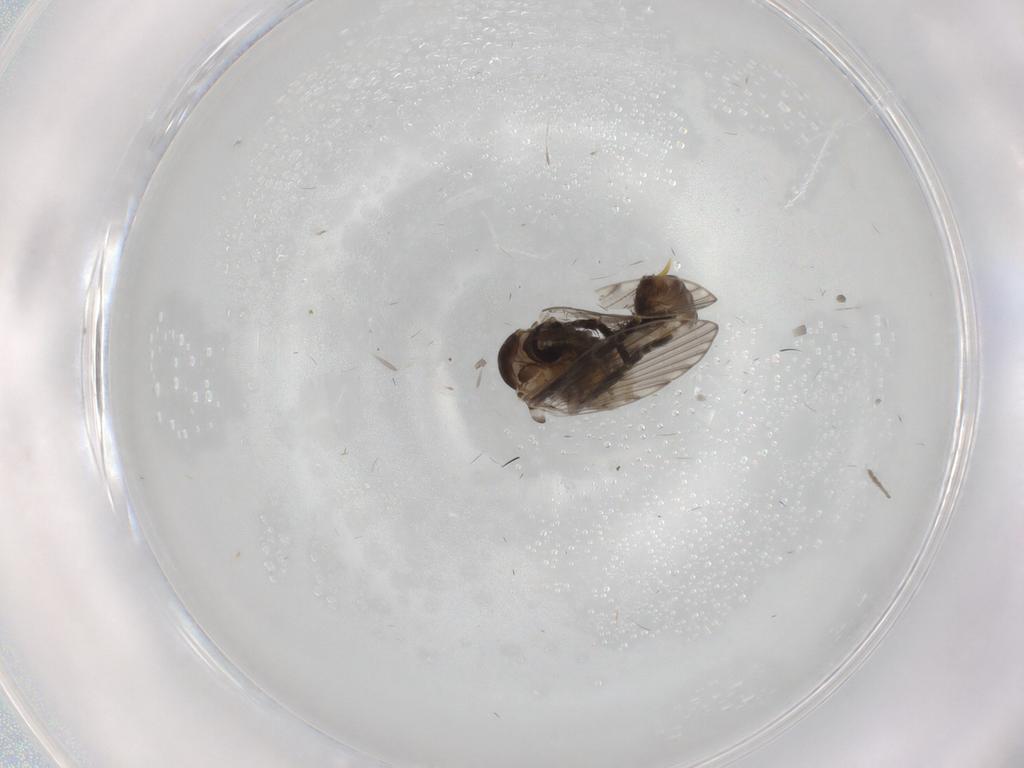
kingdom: Animalia
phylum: Arthropoda
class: Insecta
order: Diptera
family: Psychodidae
